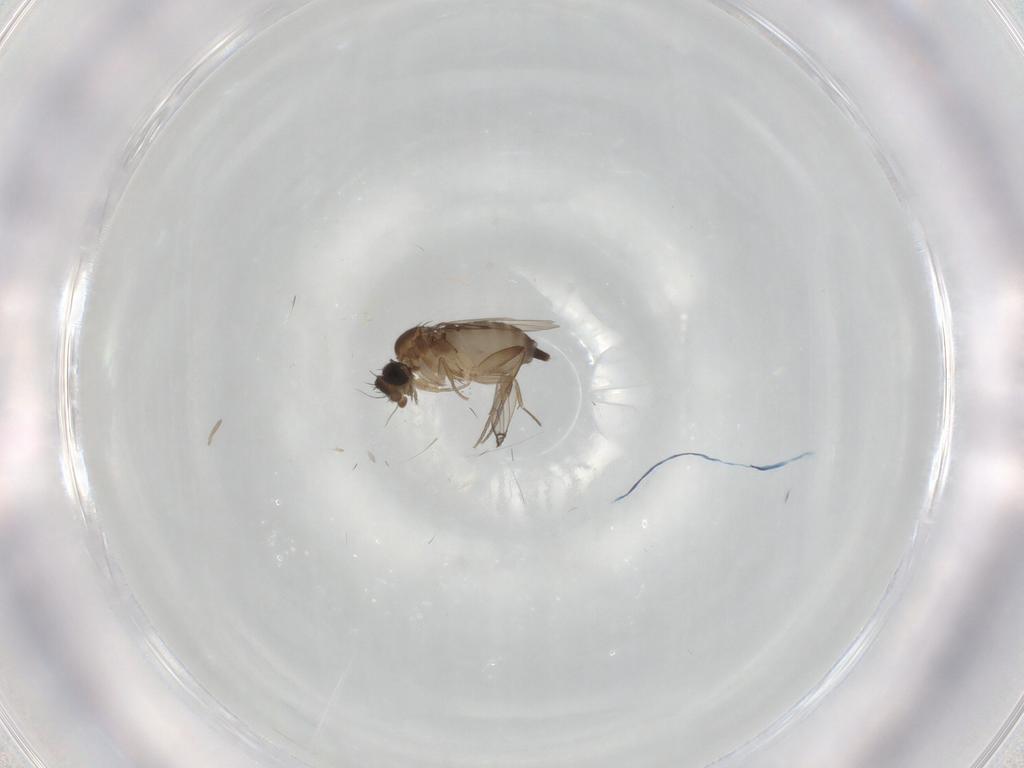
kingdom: Animalia
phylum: Arthropoda
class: Insecta
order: Diptera
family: Phoridae
